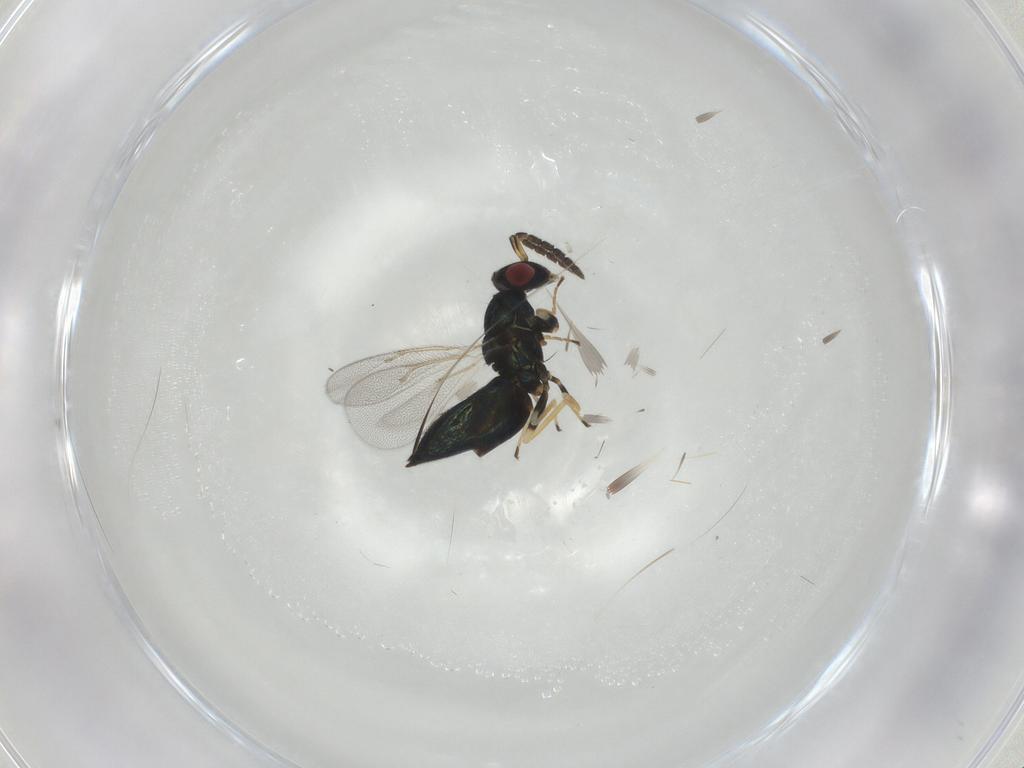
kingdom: Animalia
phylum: Arthropoda
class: Insecta
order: Hymenoptera
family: Eulophidae
